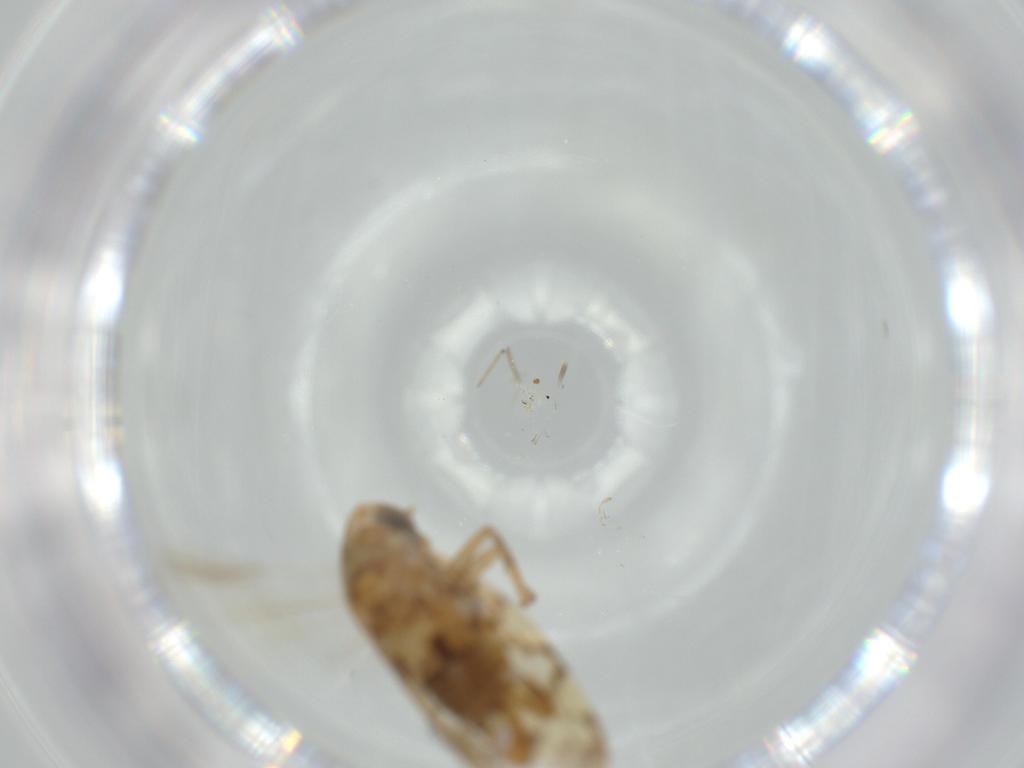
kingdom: Animalia
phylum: Arthropoda
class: Insecta
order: Hemiptera
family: Cicadellidae
